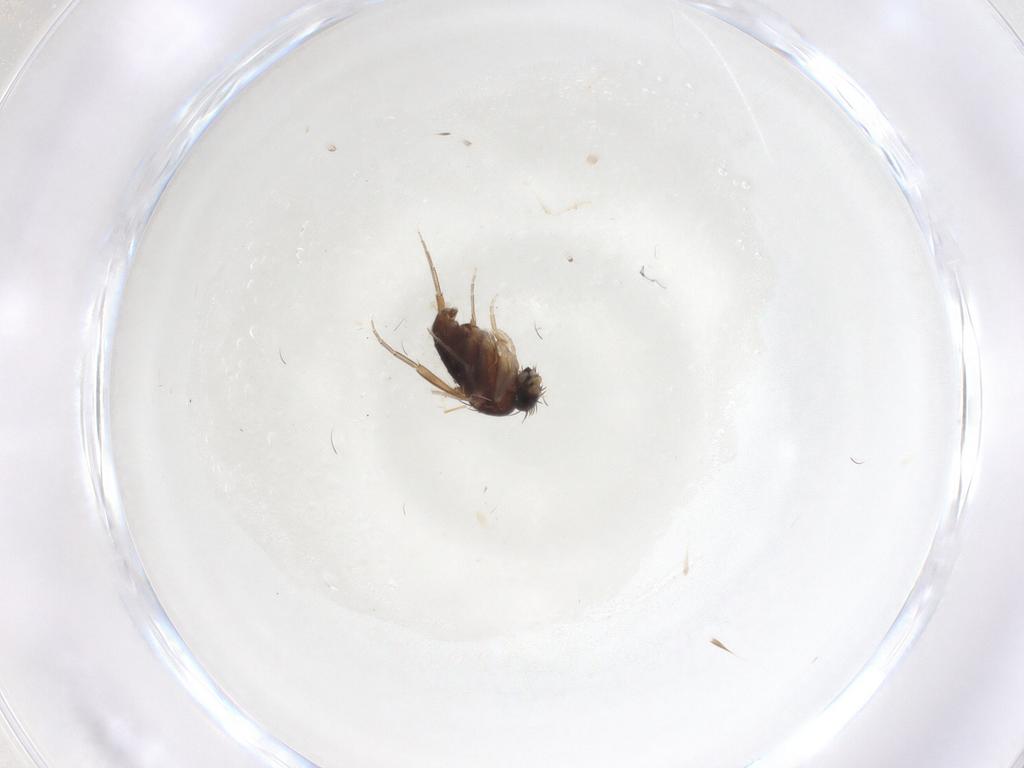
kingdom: Animalia
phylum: Arthropoda
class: Insecta
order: Diptera
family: Phoridae
